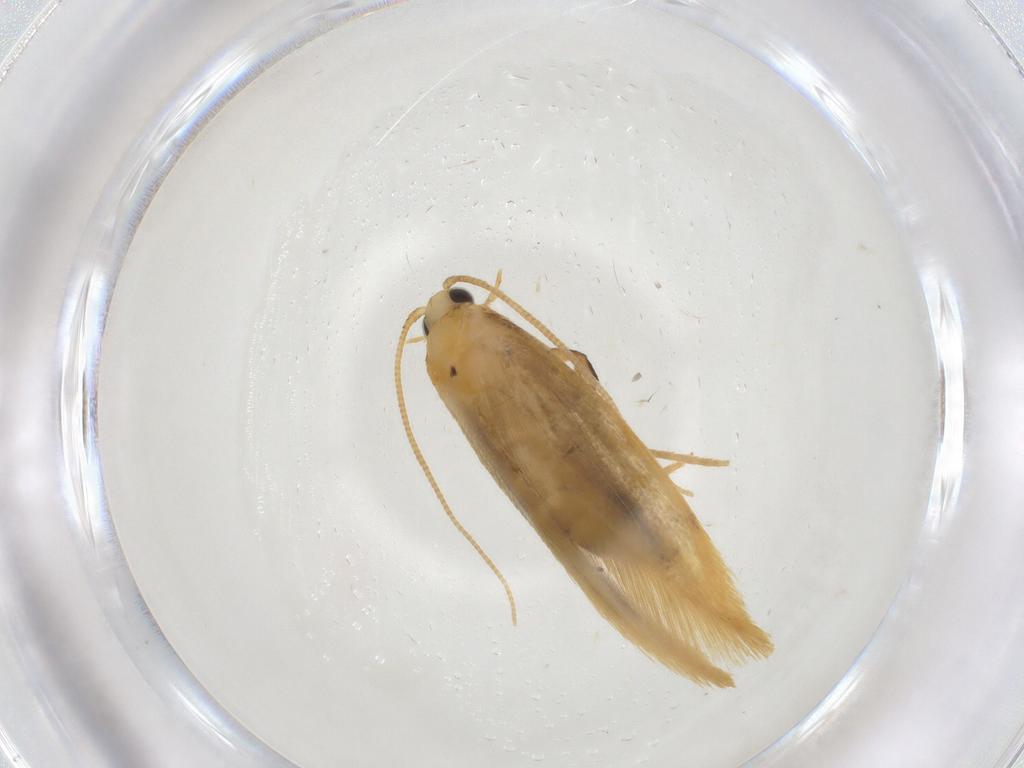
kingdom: Animalia
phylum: Arthropoda
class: Insecta
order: Lepidoptera
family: Tineidae
